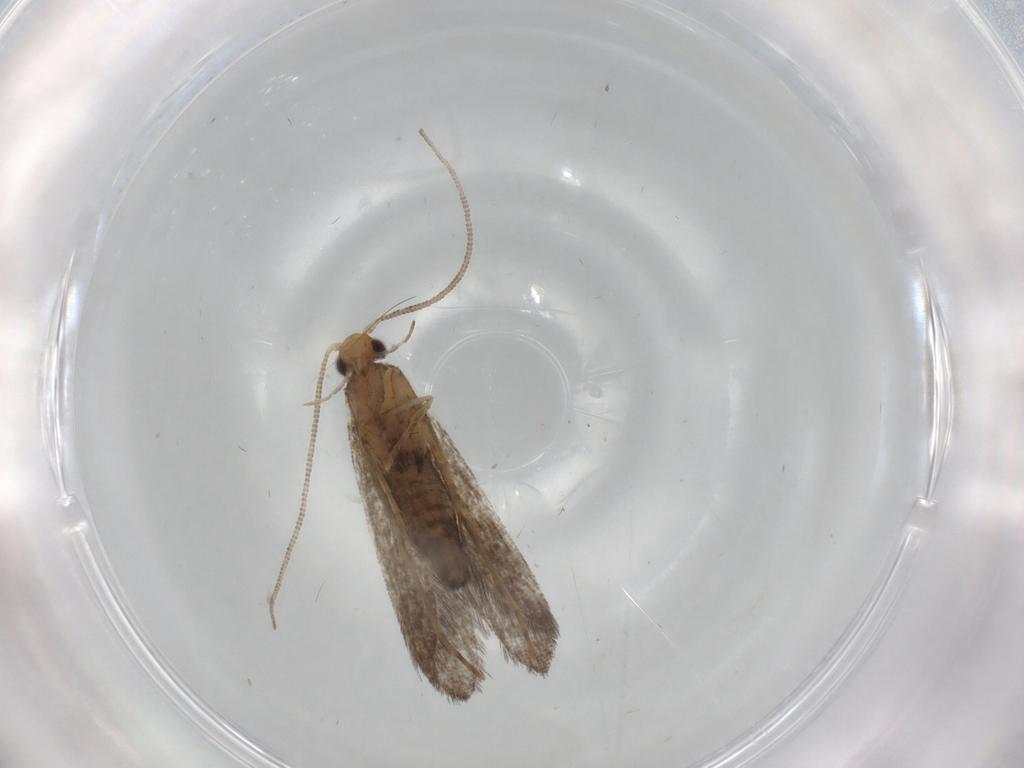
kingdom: Animalia
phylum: Arthropoda
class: Insecta
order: Lepidoptera
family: Tineidae
